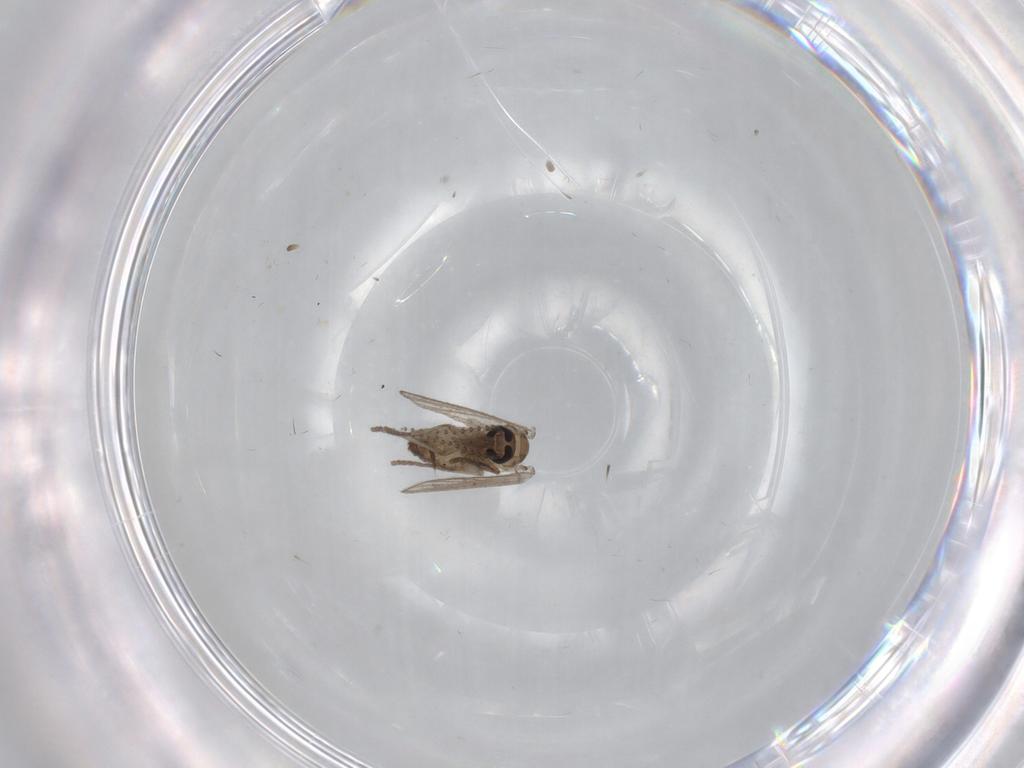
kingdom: Animalia
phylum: Arthropoda
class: Insecta
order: Diptera
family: Psychodidae
